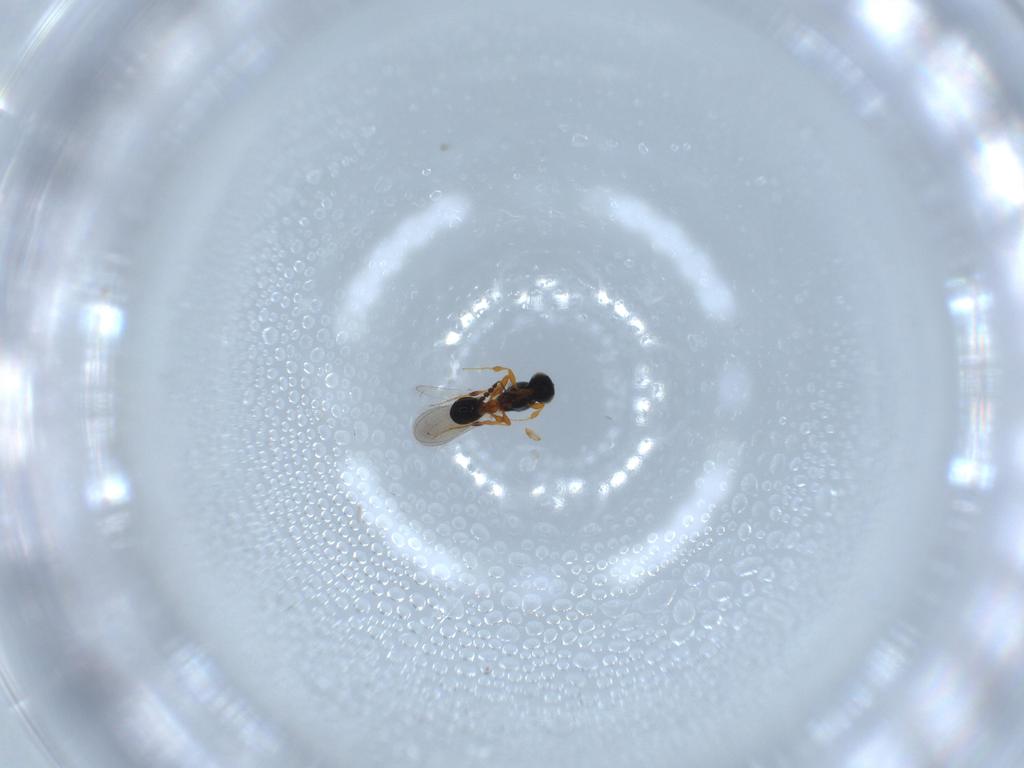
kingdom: Animalia
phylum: Arthropoda
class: Insecta
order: Hymenoptera
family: Platygastridae
